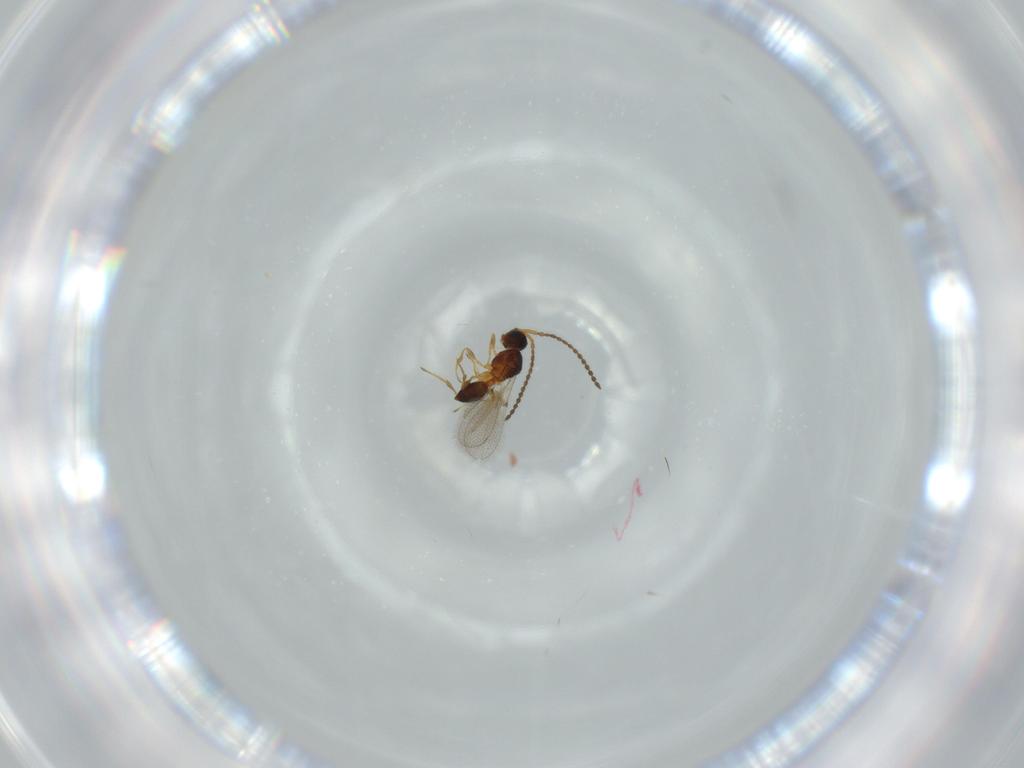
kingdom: Animalia
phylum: Arthropoda
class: Insecta
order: Hymenoptera
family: Diapriidae
